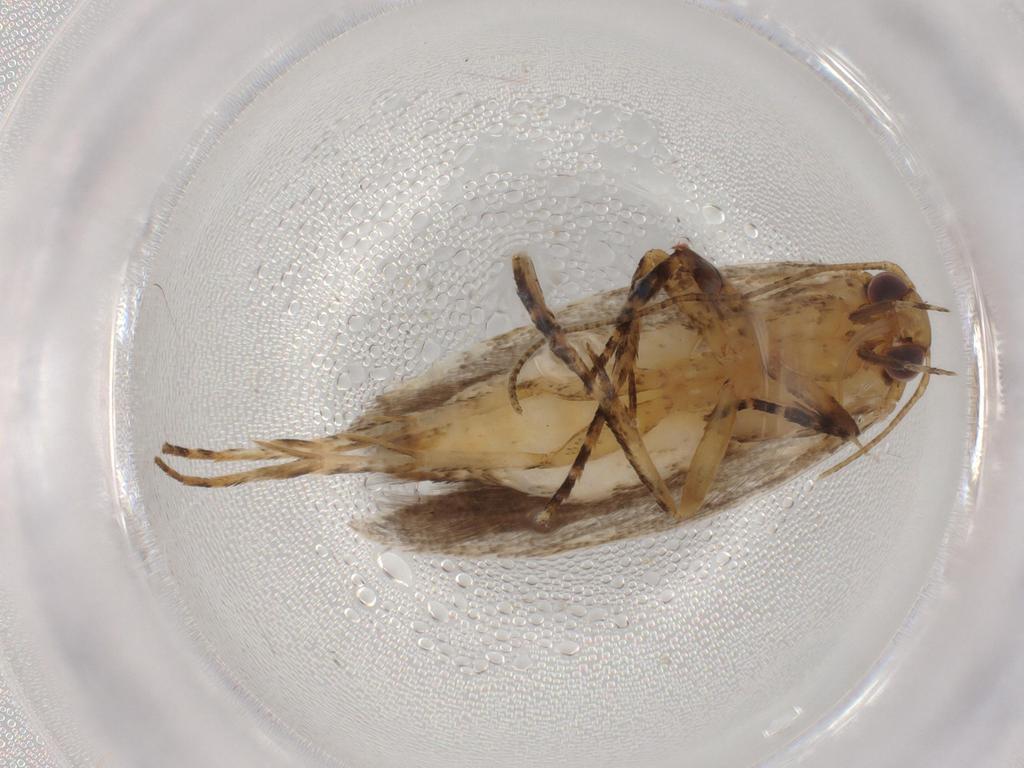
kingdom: Animalia
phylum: Arthropoda
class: Insecta
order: Lepidoptera
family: Gelechiidae
